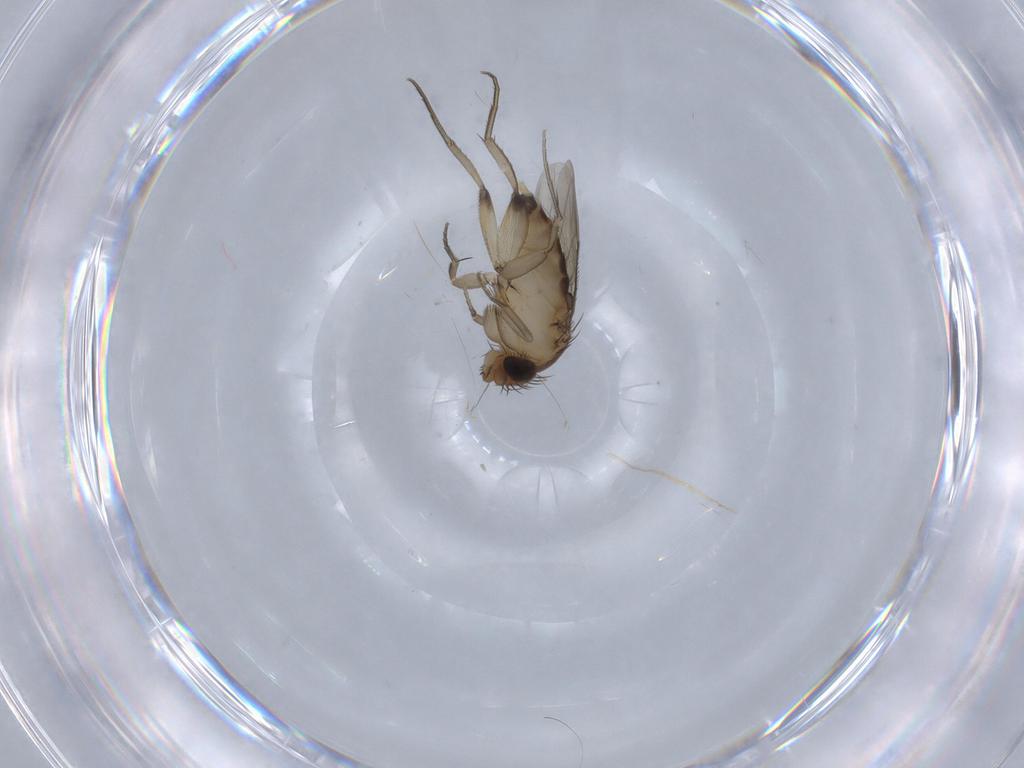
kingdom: Animalia
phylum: Arthropoda
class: Insecta
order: Diptera
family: Phoridae
